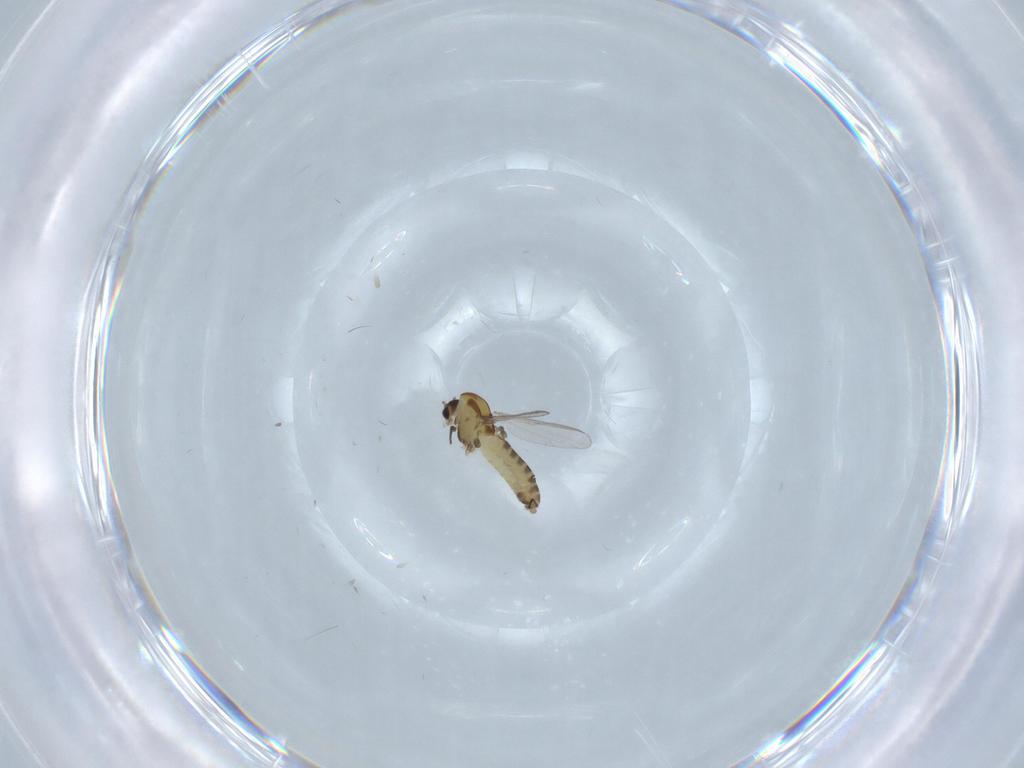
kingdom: Animalia
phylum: Arthropoda
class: Insecta
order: Diptera
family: Chironomidae
